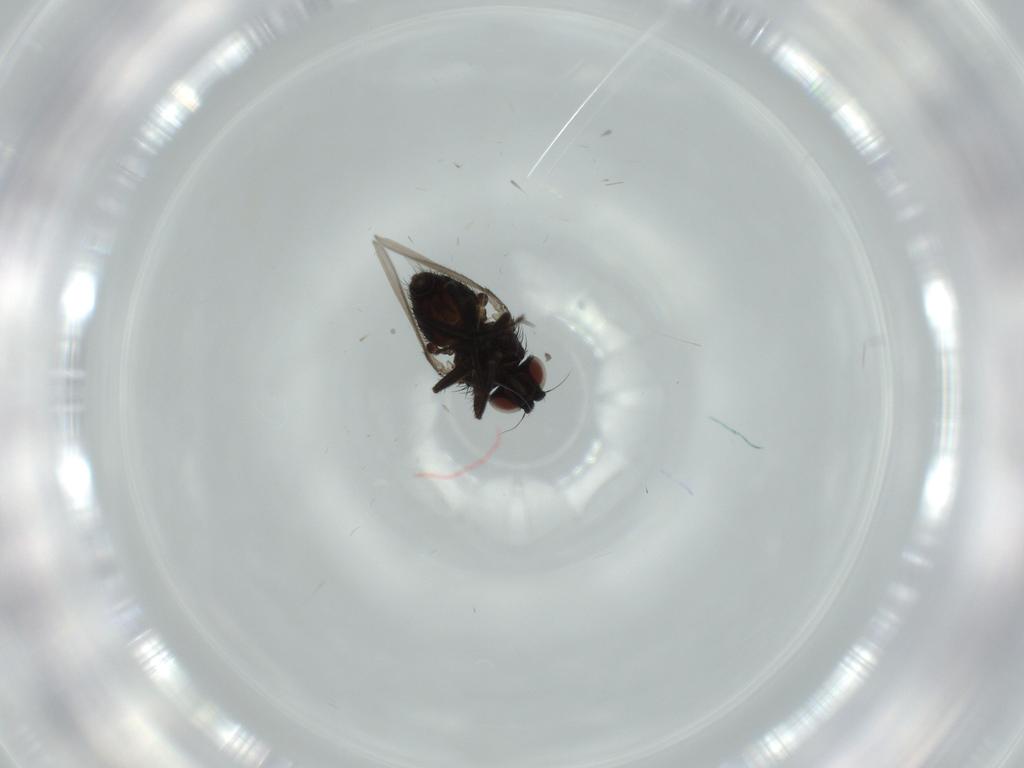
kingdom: Animalia
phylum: Arthropoda
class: Insecta
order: Diptera
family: Milichiidae
